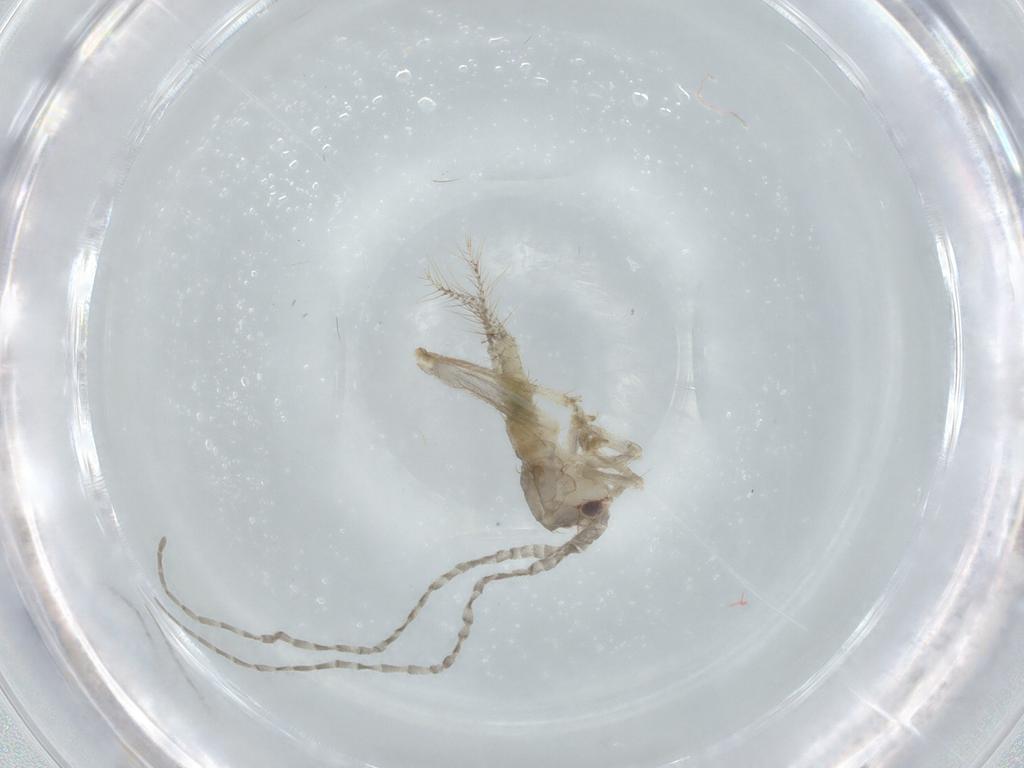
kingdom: Animalia
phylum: Arthropoda
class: Insecta
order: Orthoptera
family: Gryllidae
